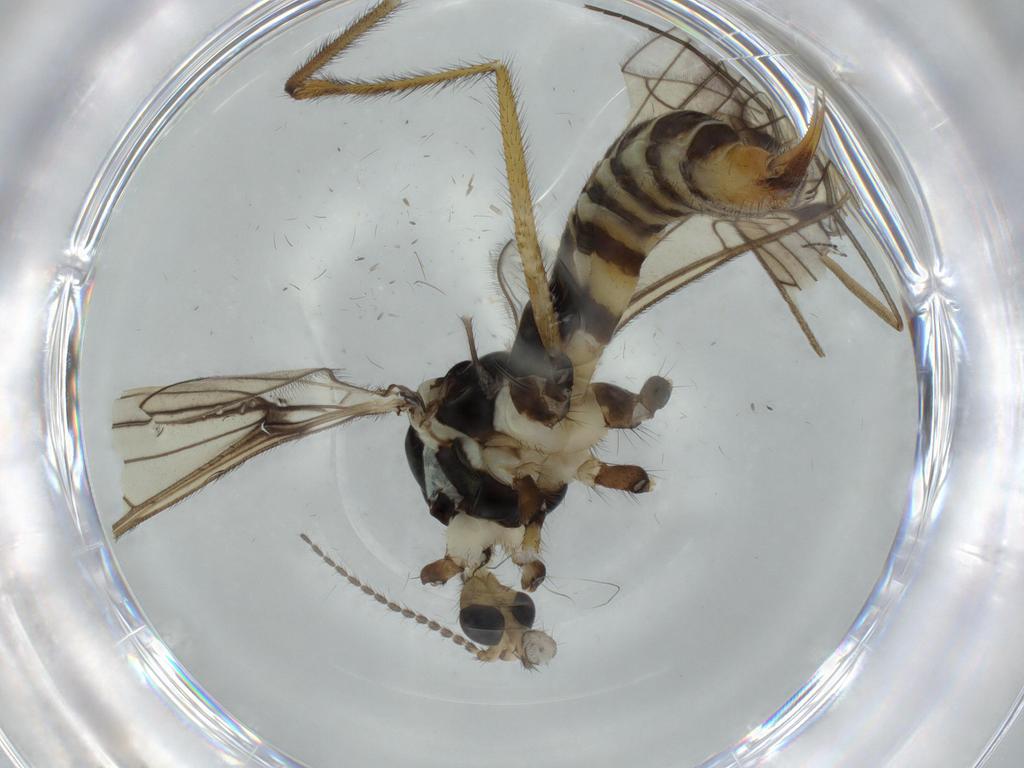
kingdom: Animalia
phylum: Arthropoda
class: Insecta
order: Diptera
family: Limoniidae
